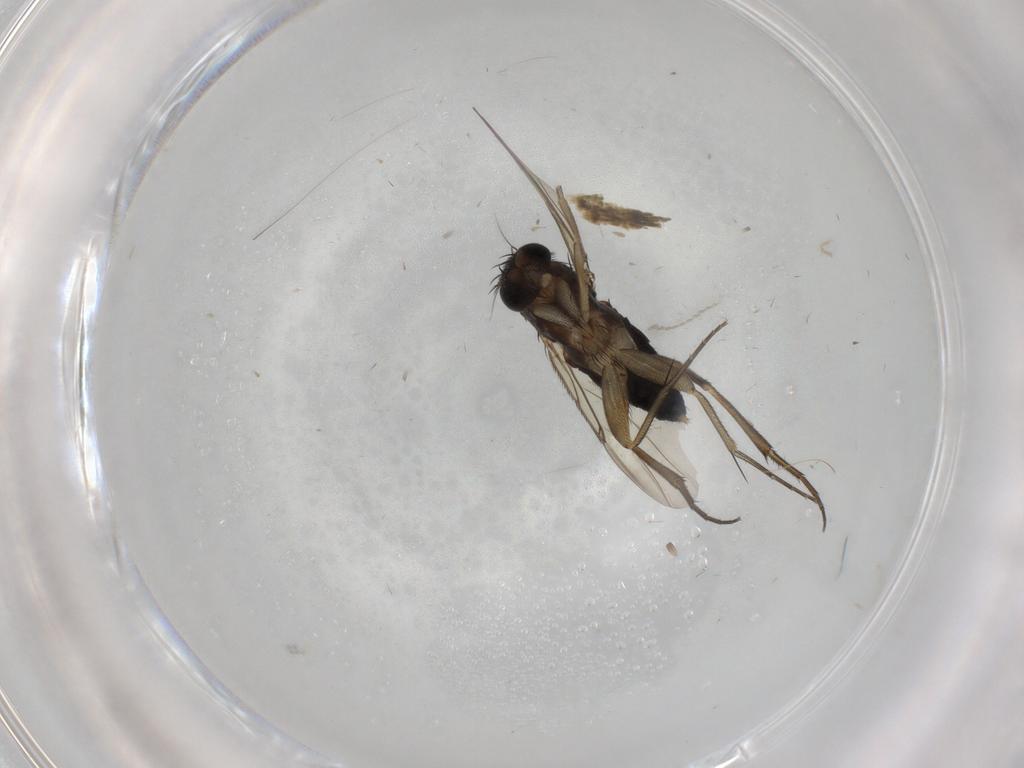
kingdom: Animalia
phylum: Arthropoda
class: Insecta
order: Diptera
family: Phoridae
